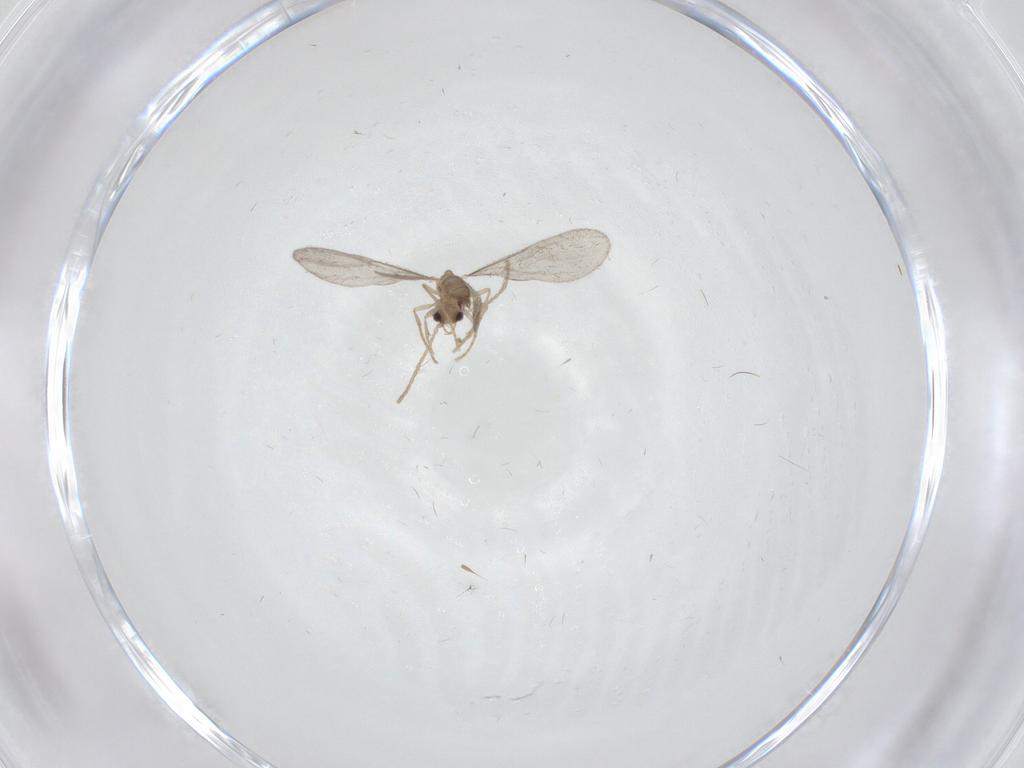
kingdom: Animalia
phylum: Arthropoda
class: Insecta
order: Hymenoptera
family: Formicidae
